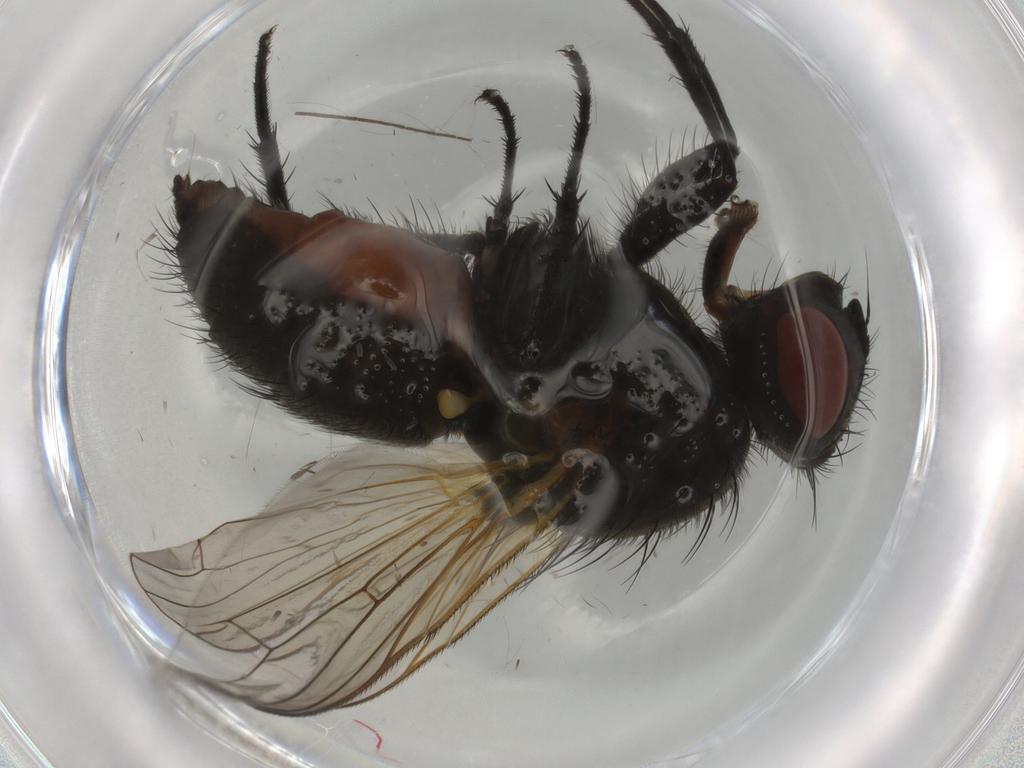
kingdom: Animalia
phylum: Arthropoda
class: Insecta
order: Diptera
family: Anthomyiidae
